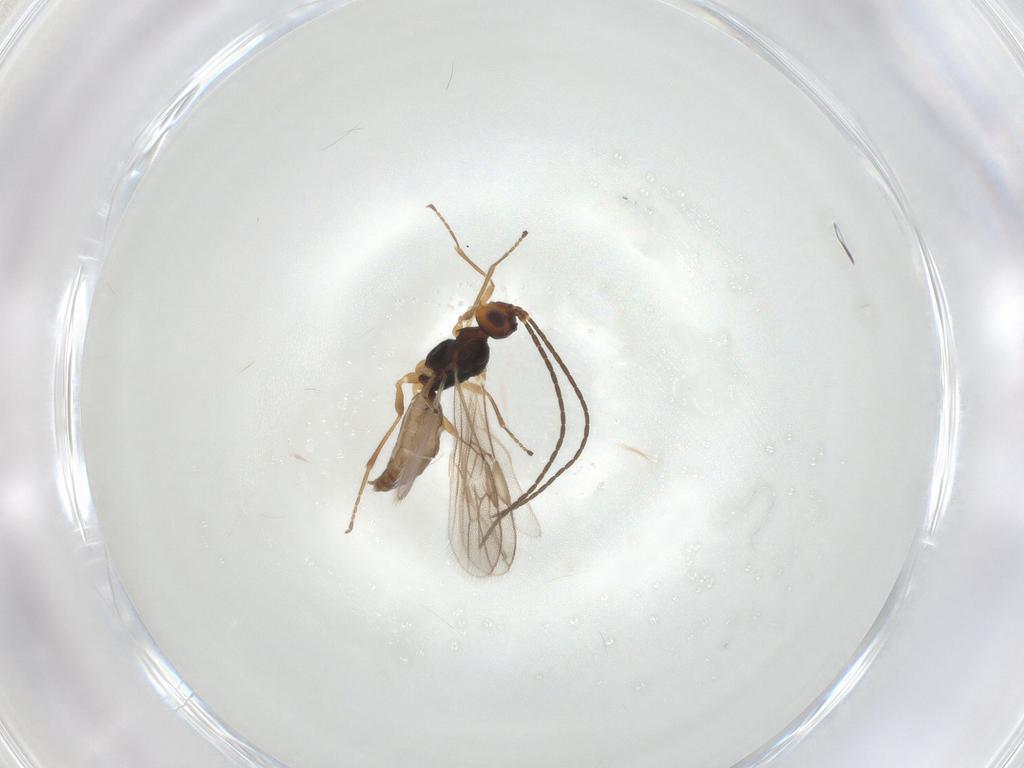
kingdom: Animalia
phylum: Arthropoda
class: Insecta
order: Hymenoptera
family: Braconidae
